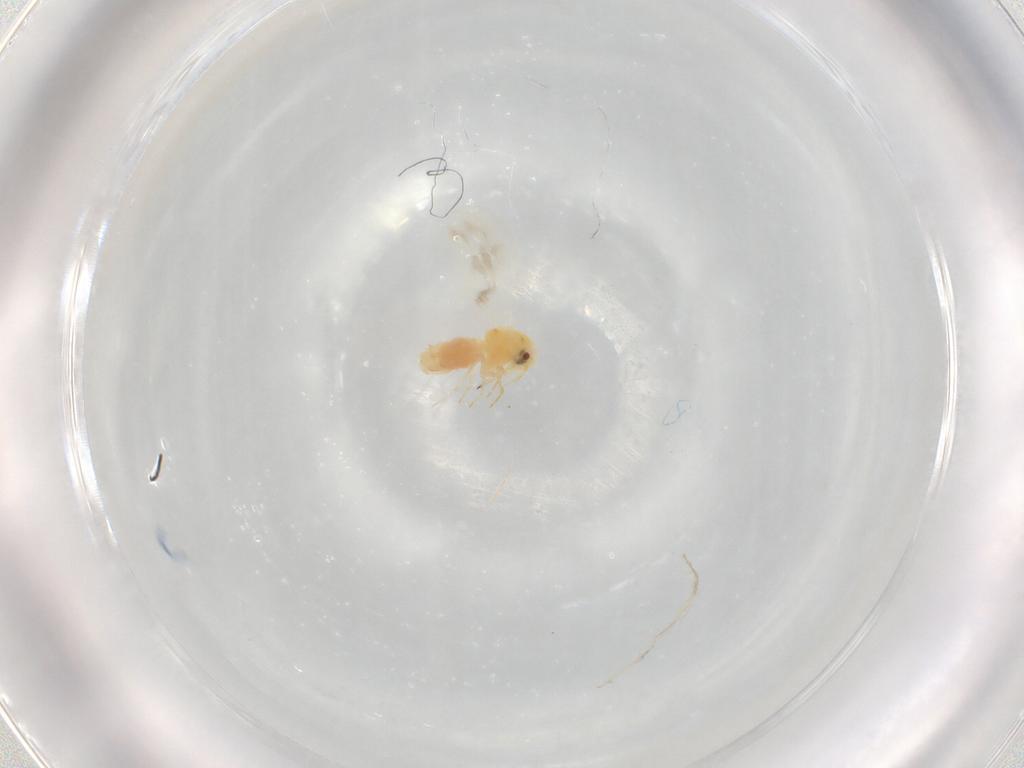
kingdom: Animalia
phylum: Arthropoda
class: Insecta
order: Hemiptera
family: Aleyrodidae
